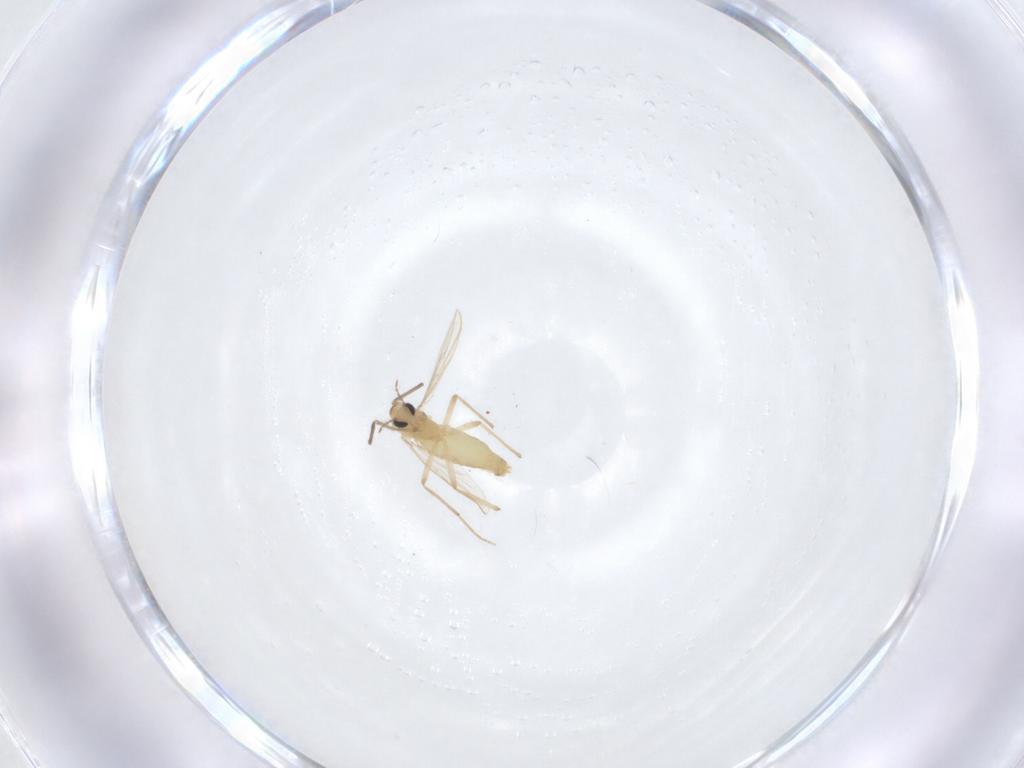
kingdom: Animalia
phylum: Arthropoda
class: Insecta
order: Diptera
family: Chironomidae
